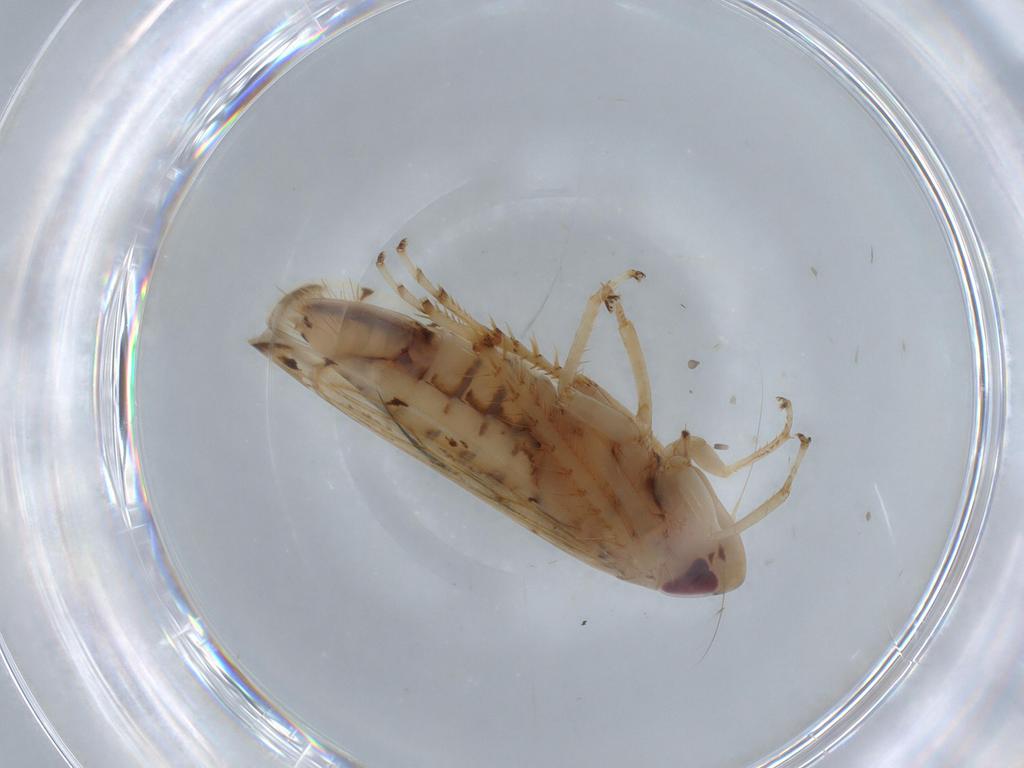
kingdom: Animalia
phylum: Arthropoda
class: Insecta
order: Hemiptera
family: Cicadellidae
